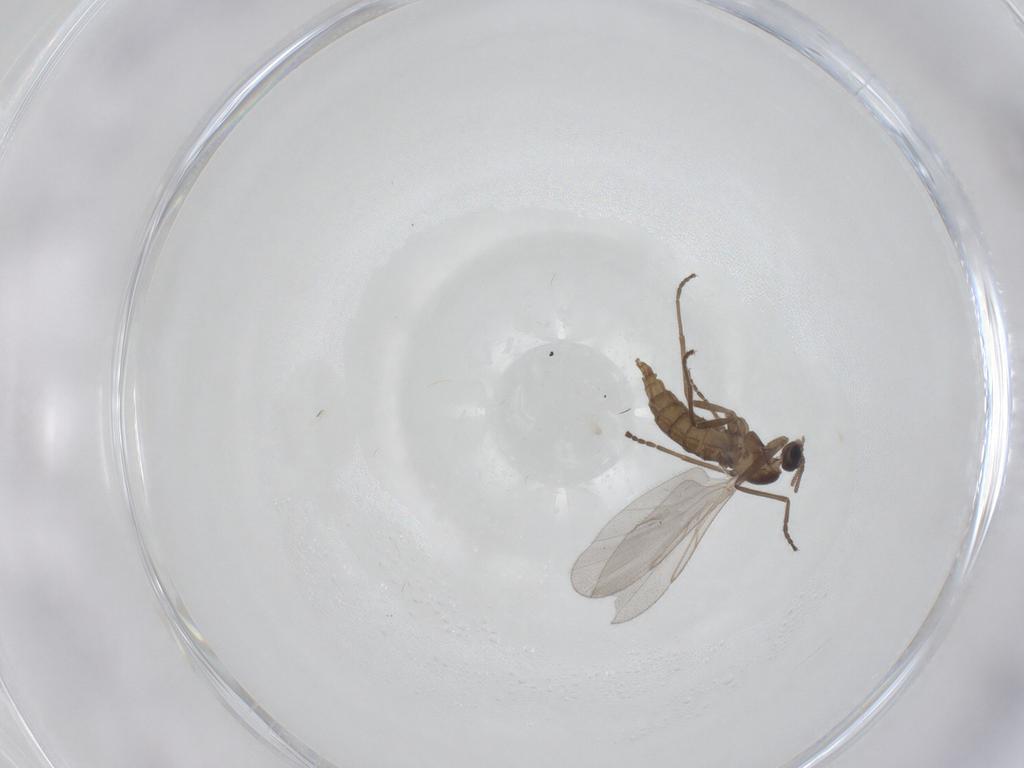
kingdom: Animalia
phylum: Arthropoda
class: Insecta
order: Diptera
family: Cecidomyiidae
